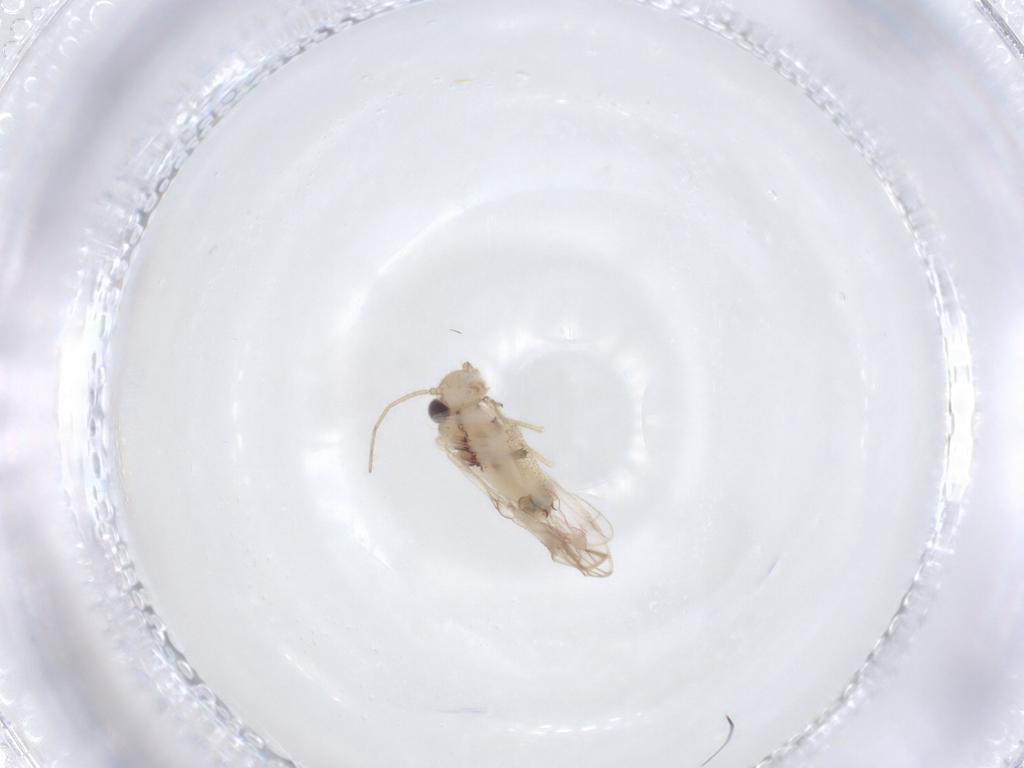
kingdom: Animalia
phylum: Arthropoda
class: Insecta
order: Psocodea
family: Caeciliusidae
